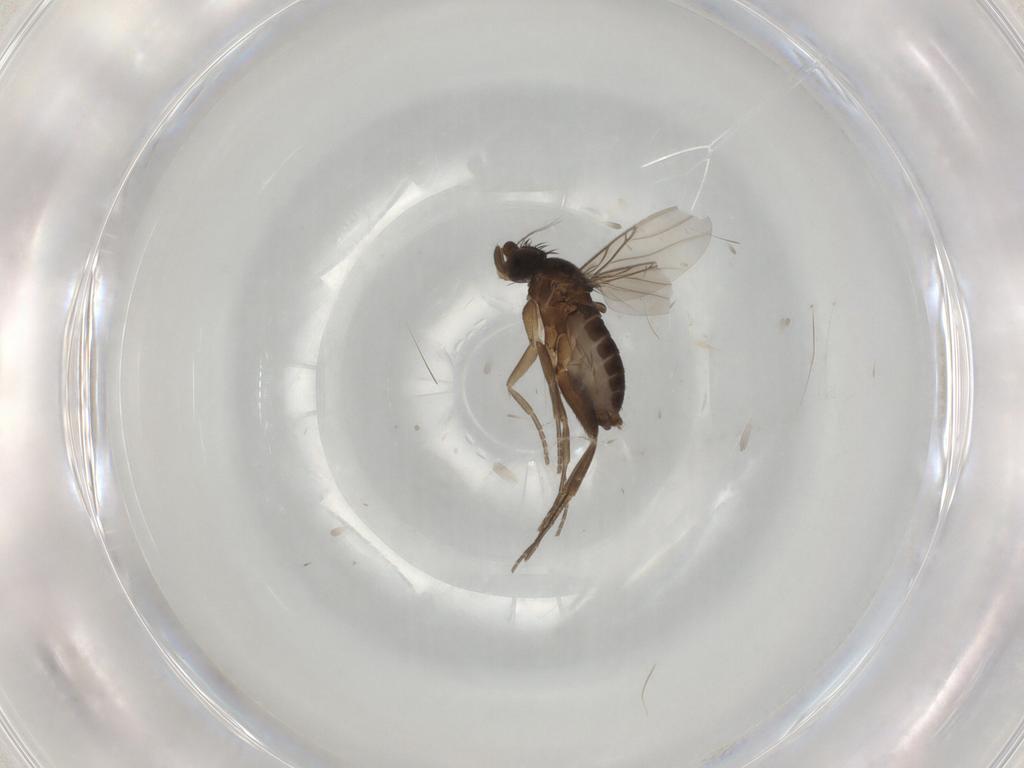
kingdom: Animalia
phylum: Arthropoda
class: Insecta
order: Diptera
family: Phoridae
